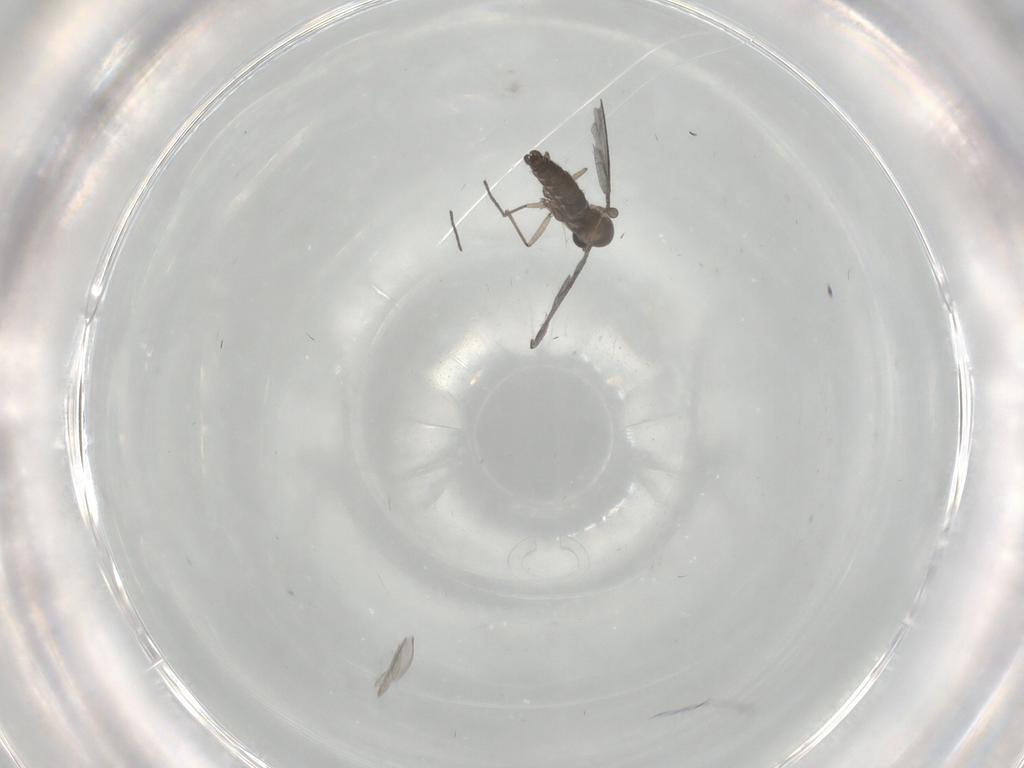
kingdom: Animalia
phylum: Arthropoda
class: Insecta
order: Diptera
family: Sciaridae
